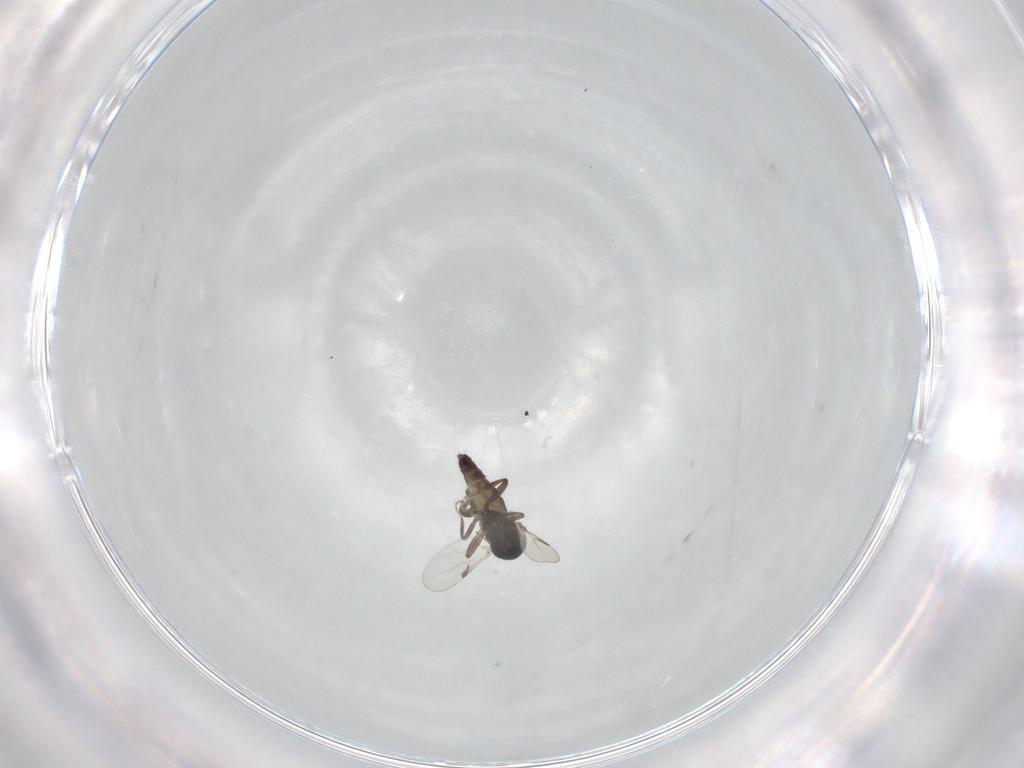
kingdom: Animalia
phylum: Arthropoda
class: Insecta
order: Diptera
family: Ceratopogonidae
